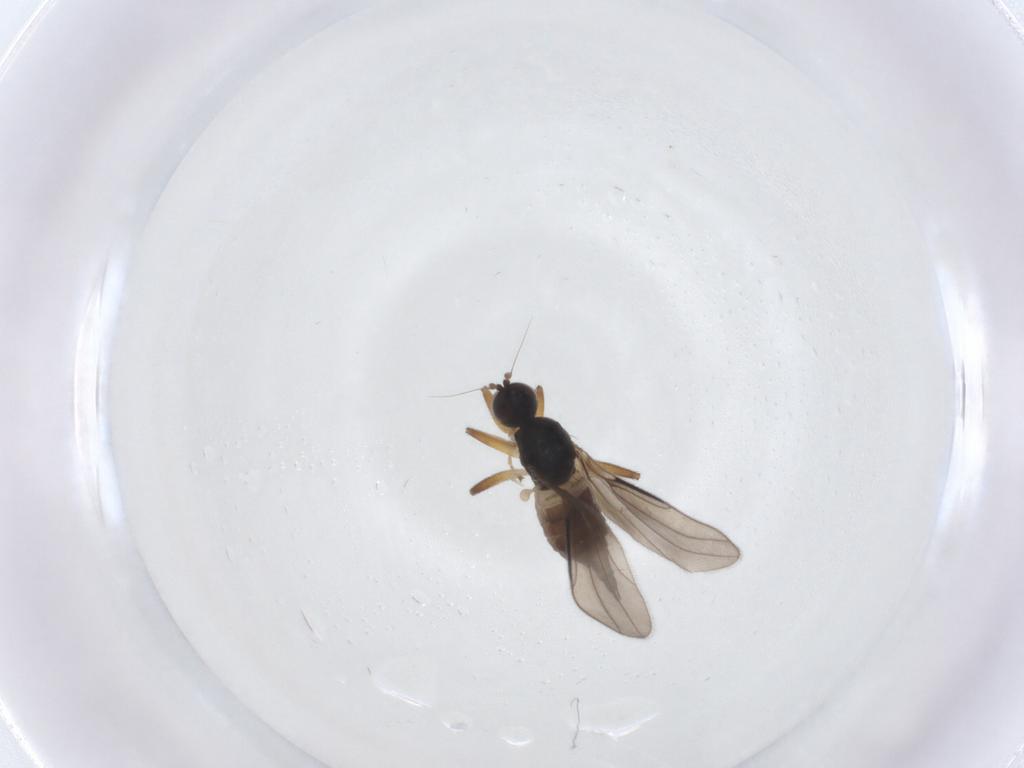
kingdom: Animalia
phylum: Arthropoda
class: Insecta
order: Diptera
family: Hybotidae
